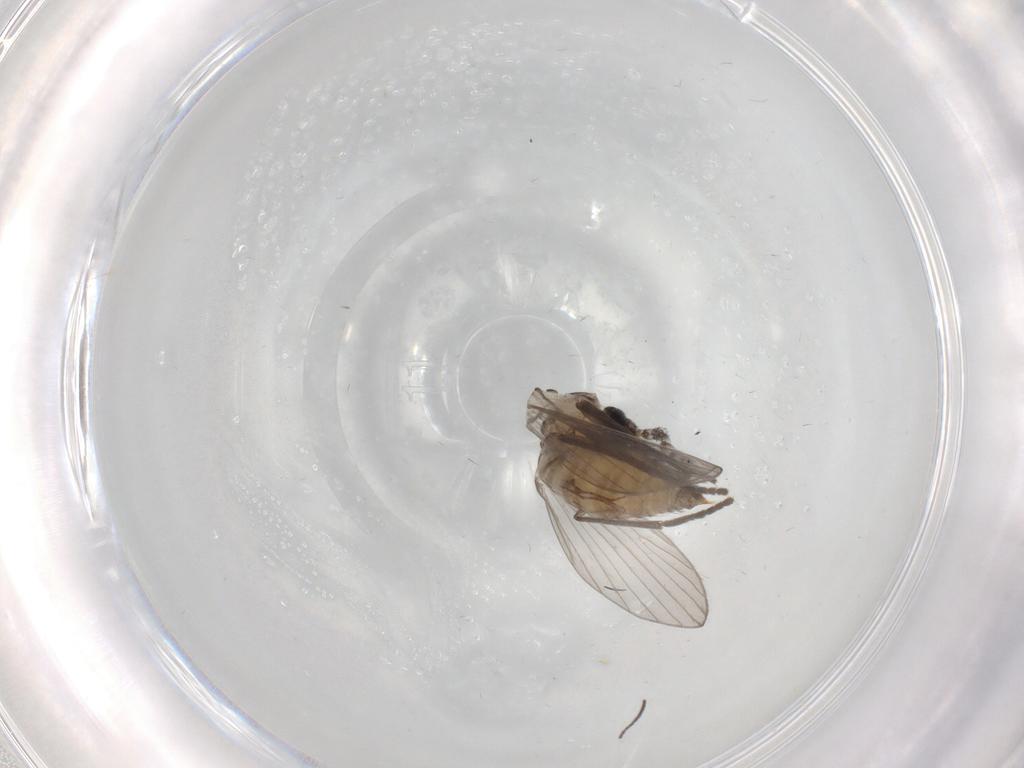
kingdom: Animalia
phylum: Arthropoda
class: Insecta
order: Diptera
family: Psychodidae
